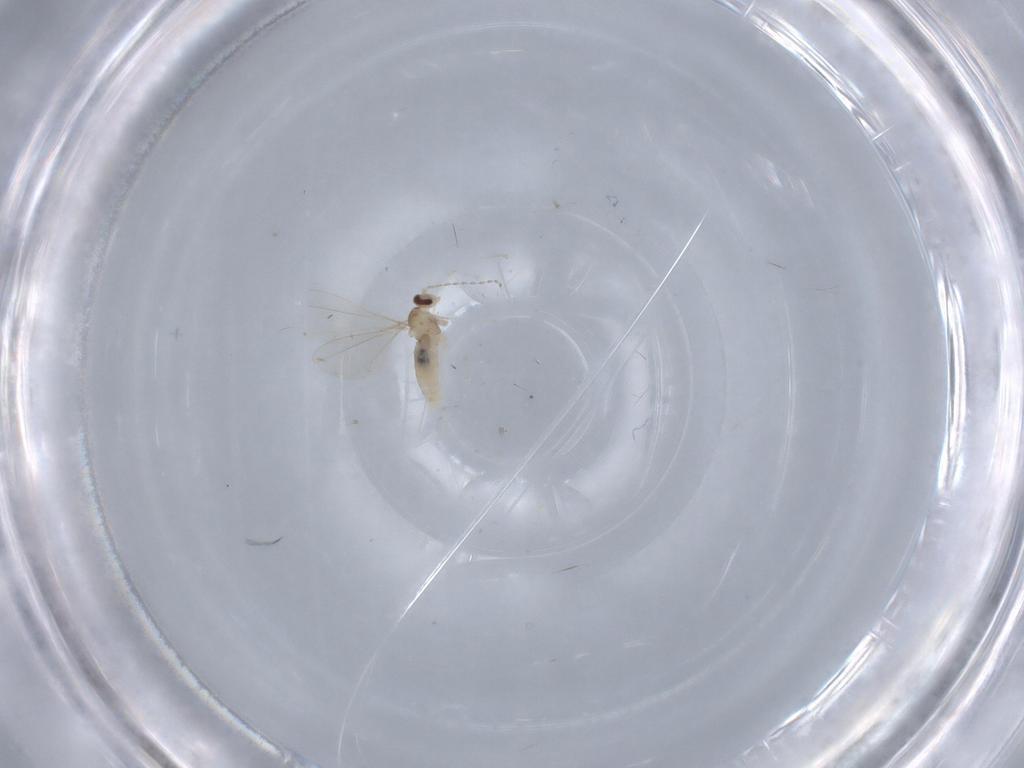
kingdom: Animalia
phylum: Arthropoda
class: Insecta
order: Diptera
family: Cecidomyiidae
